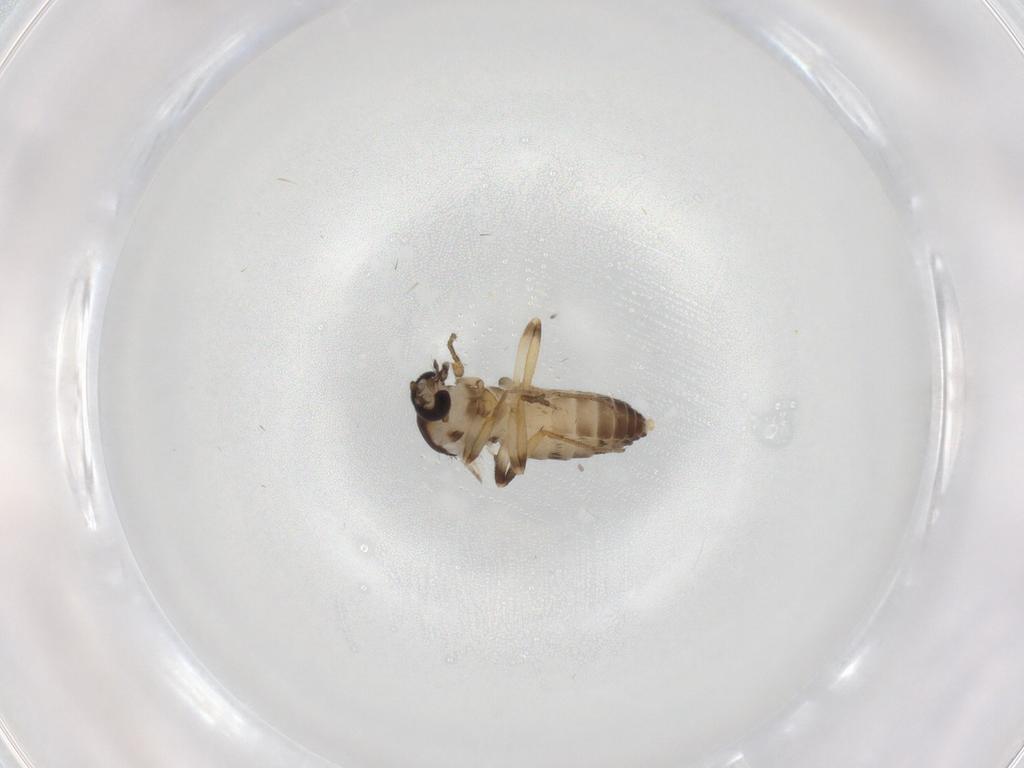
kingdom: Animalia
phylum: Arthropoda
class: Insecta
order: Diptera
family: Ceratopogonidae
